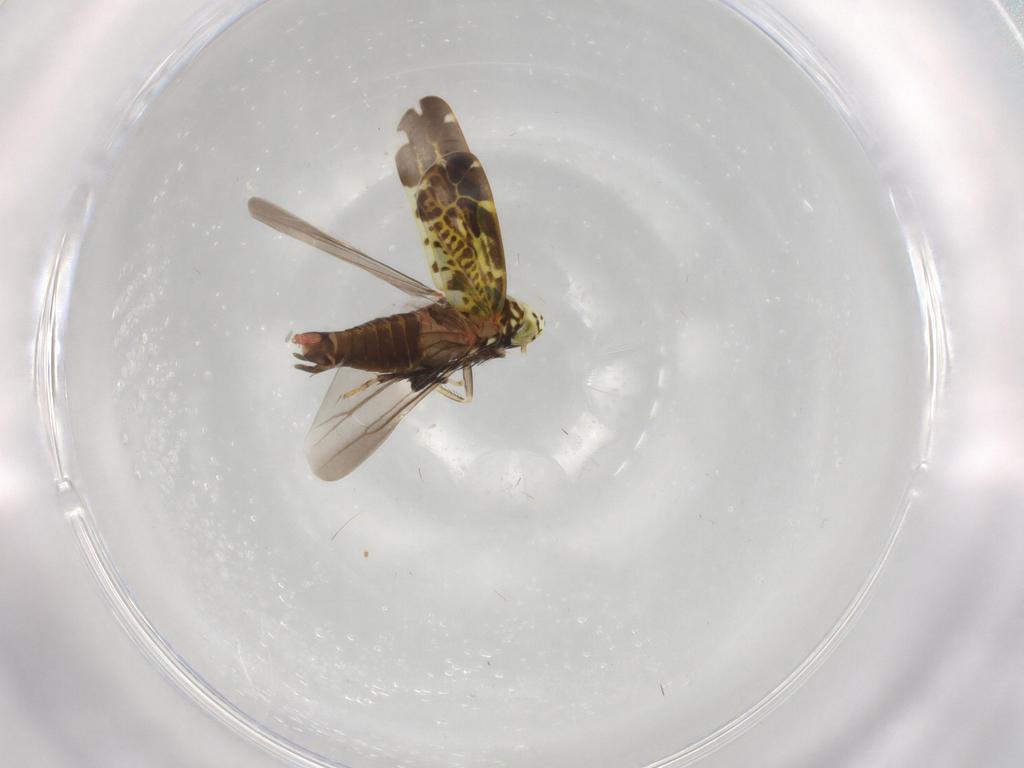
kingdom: Animalia
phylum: Arthropoda
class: Insecta
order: Hemiptera
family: Cicadellidae
